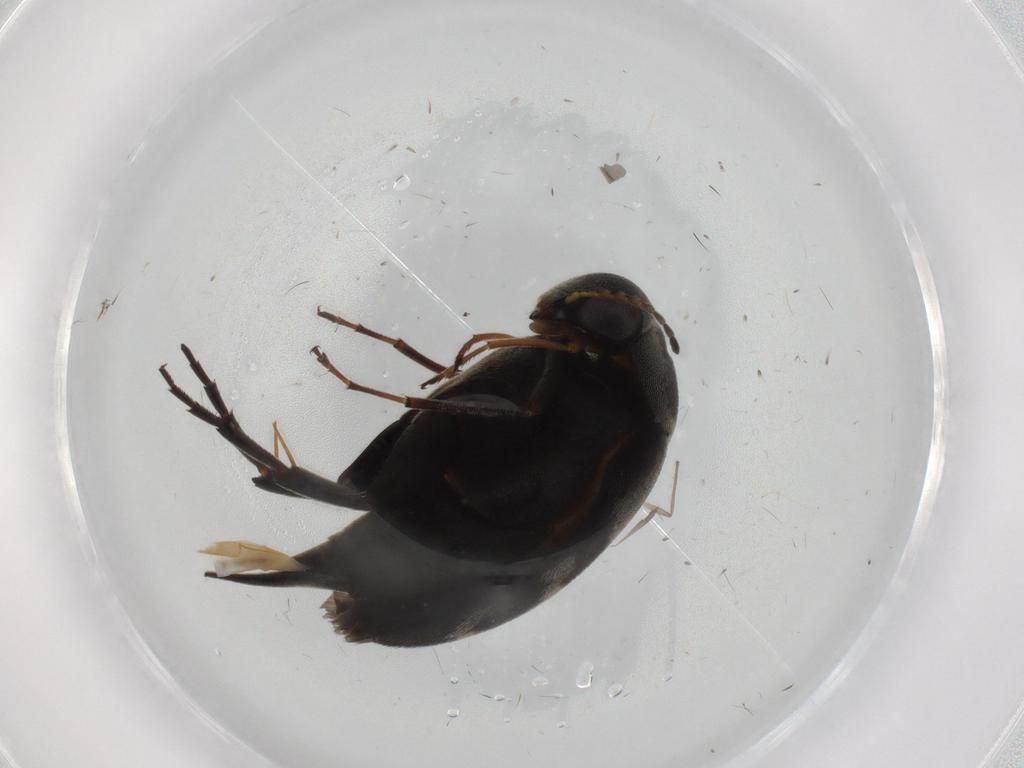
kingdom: Animalia
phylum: Arthropoda
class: Insecta
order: Coleoptera
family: Mordellidae
